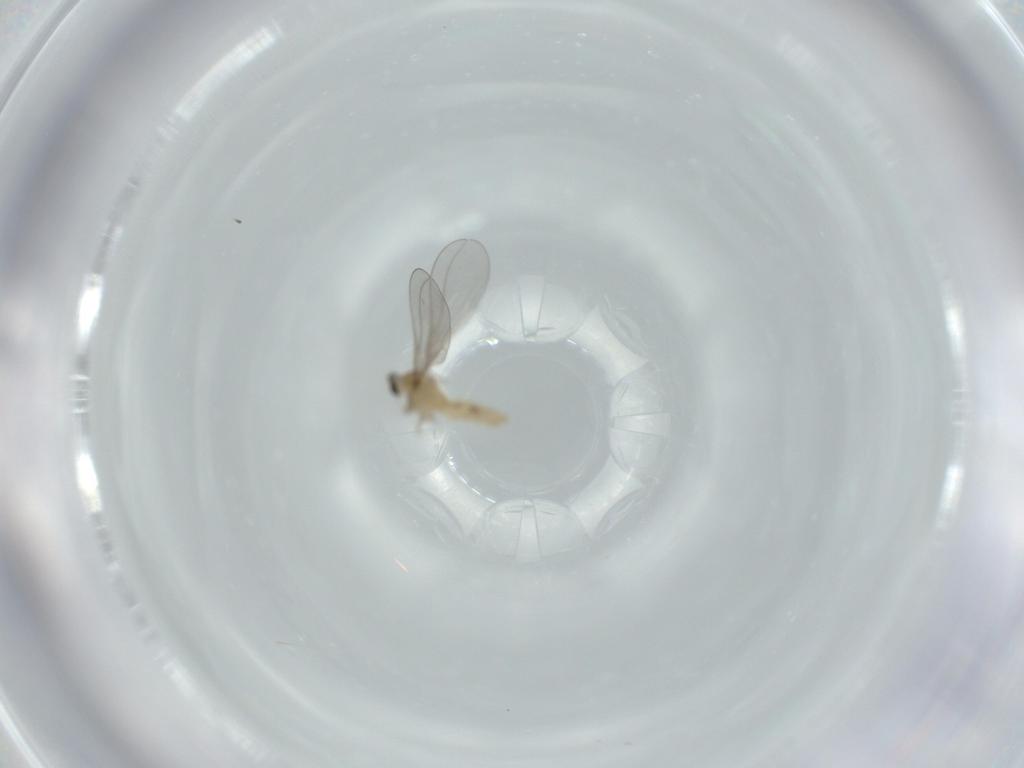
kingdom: Animalia
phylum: Arthropoda
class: Insecta
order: Diptera
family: Cecidomyiidae
